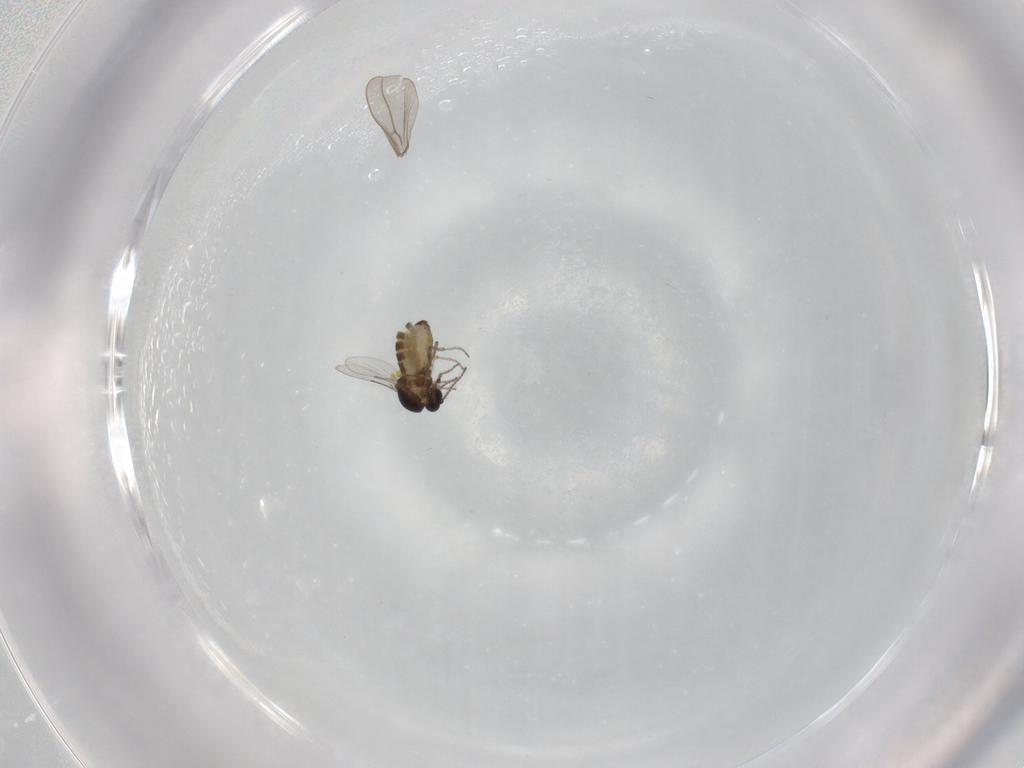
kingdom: Animalia
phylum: Arthropoda
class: Insecta
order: Diptera
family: Ceratopogonidae
